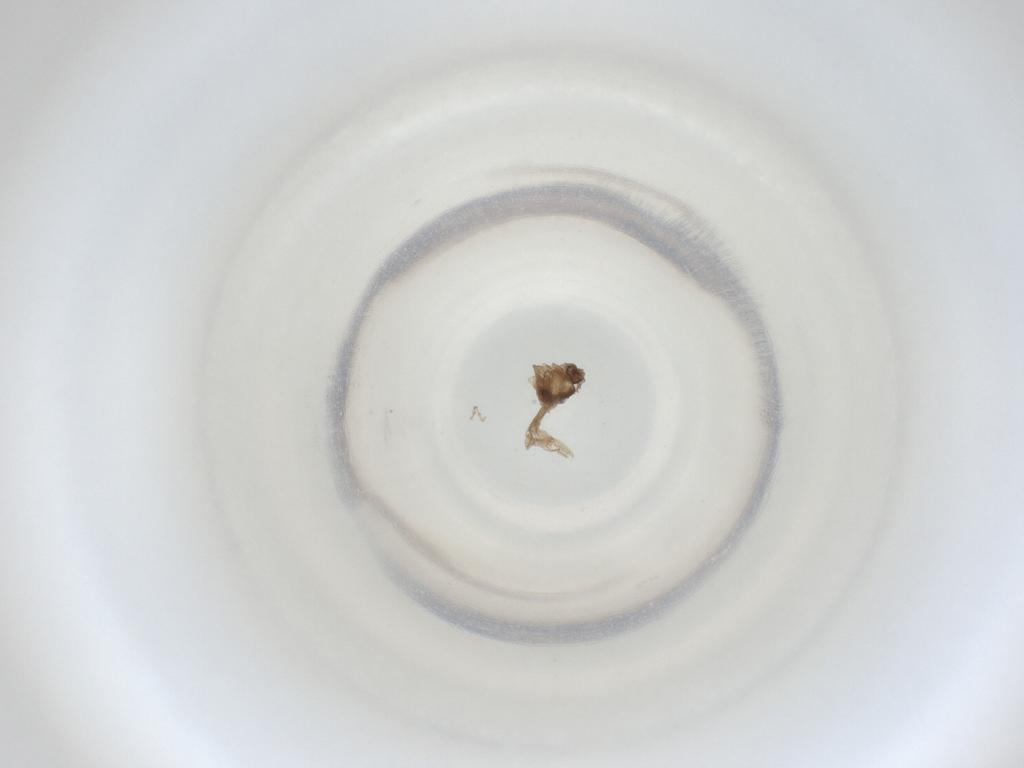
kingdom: Animalia
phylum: Arthropoda
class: Insecta
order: Diptera
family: Cecidomyiidae
